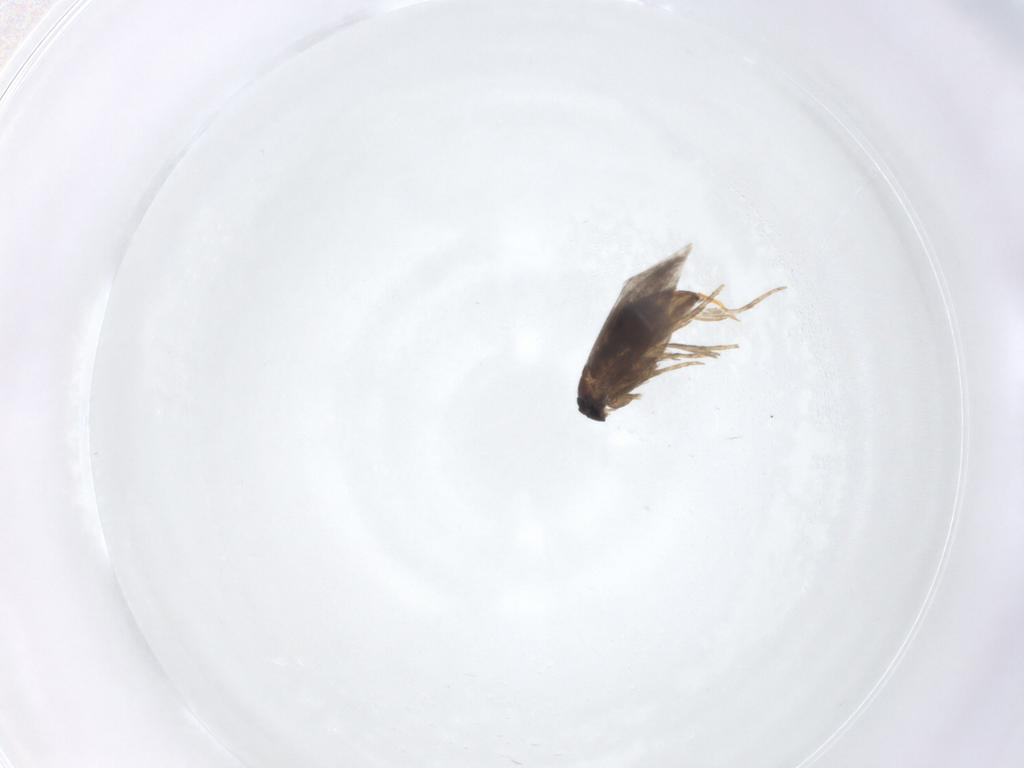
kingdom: Animalia
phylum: Arthropoda
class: Insecta
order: Lepidoptera
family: Heliozelidae
